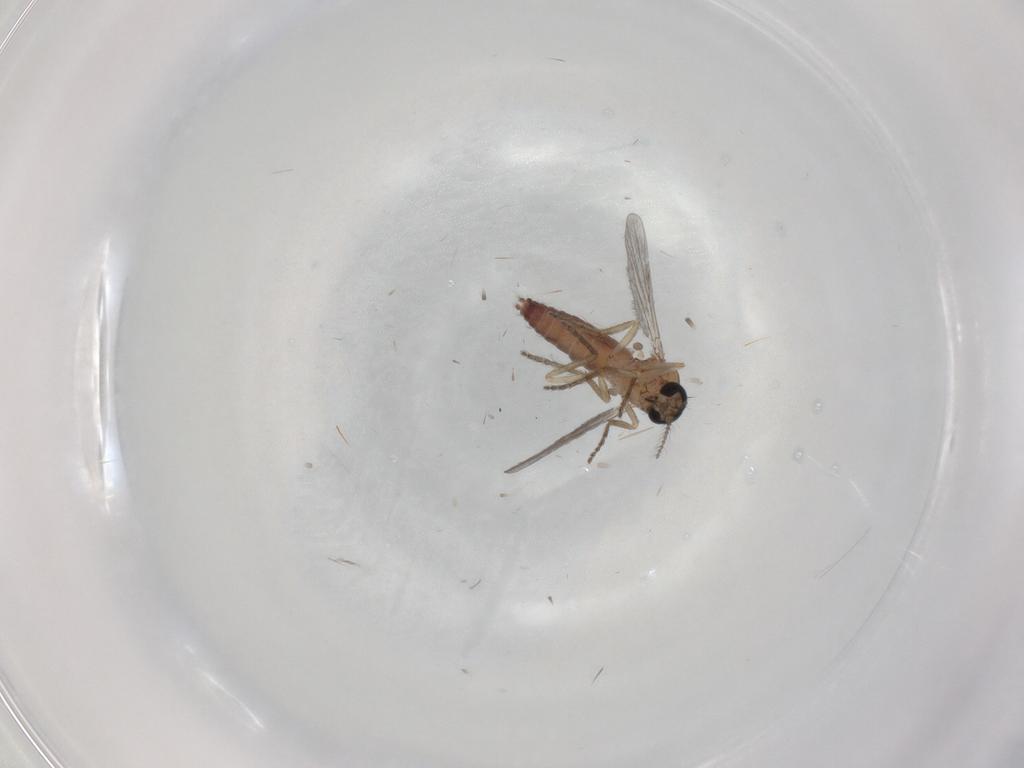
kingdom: Animalia
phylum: Arthropoda
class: Insecta
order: Diptera
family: Ceratopogonidae
